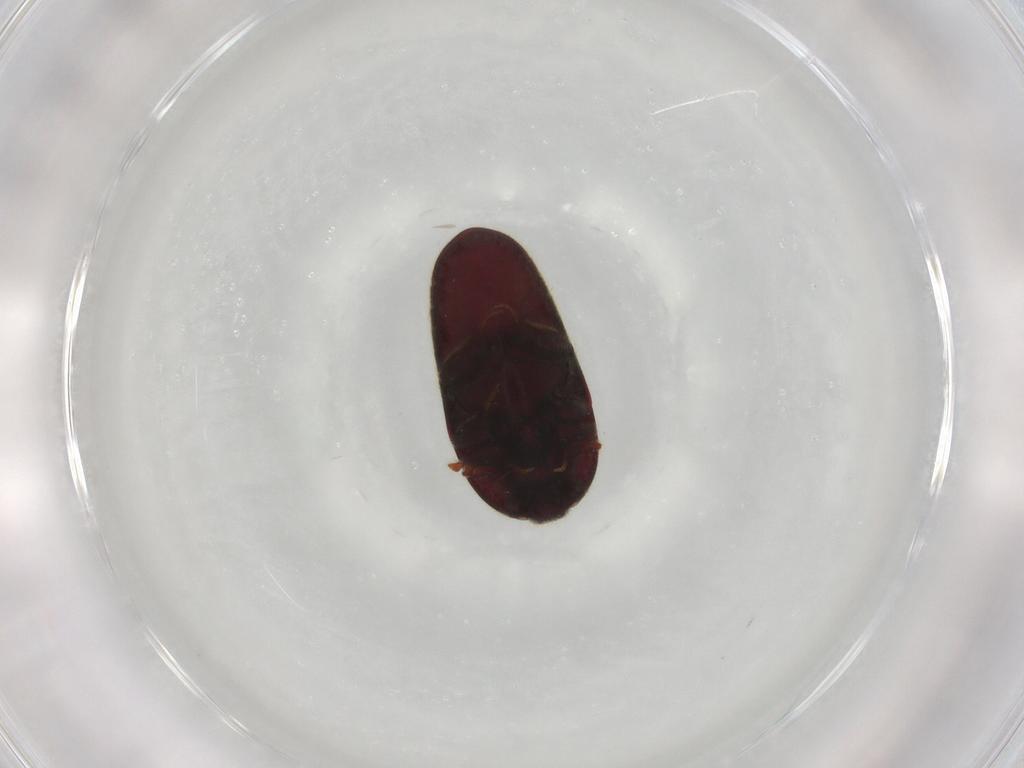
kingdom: Animalia
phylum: Arthropoda
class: Insecta
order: Coleoptera
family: Throscidae
